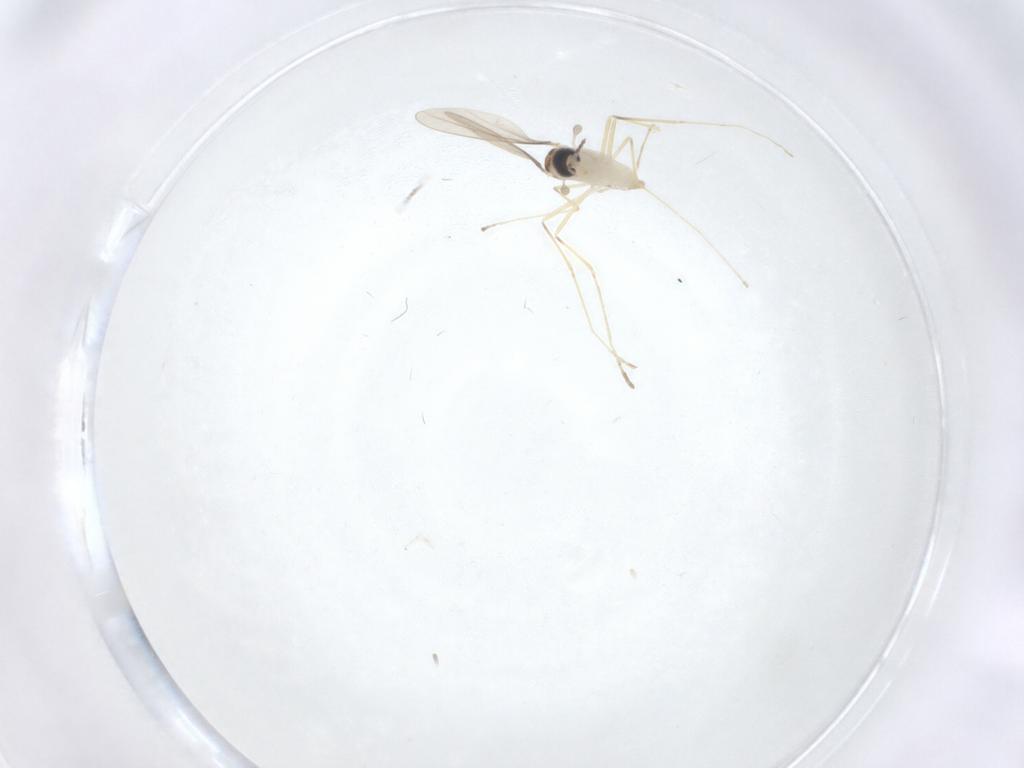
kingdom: Animalia
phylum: Arthropoda
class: Insecta
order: Diptera
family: Cecidomyiidae
